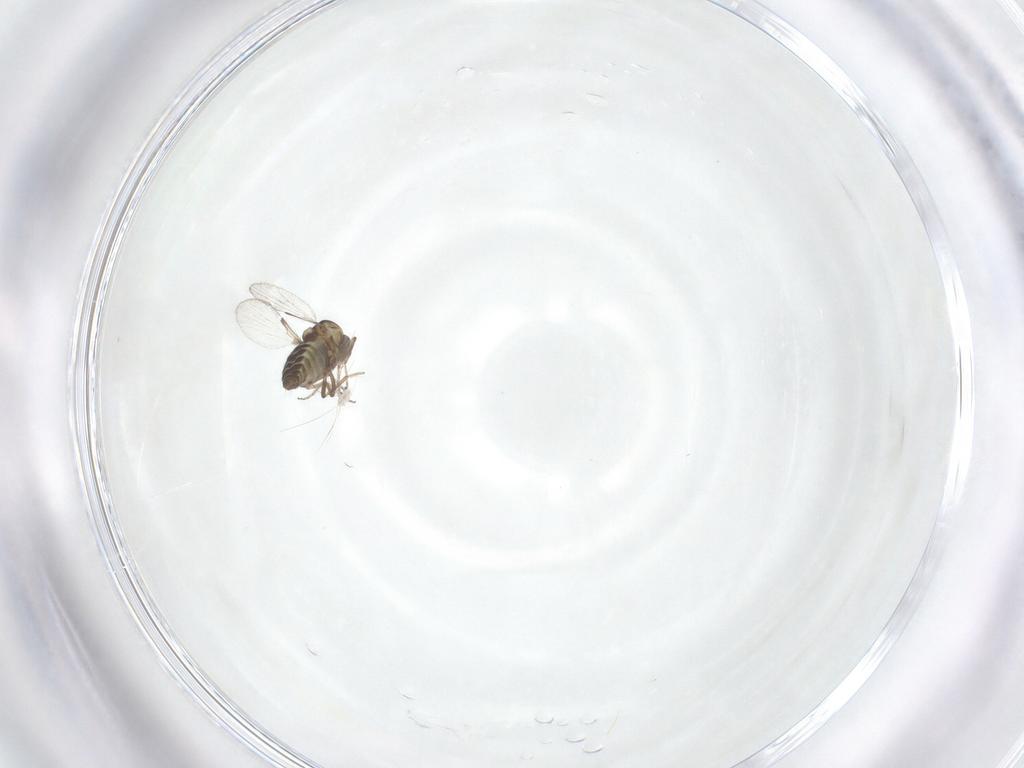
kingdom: Animalia
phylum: Arthropoda
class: Insecta
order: Diptera
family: Ceratopogonidae
